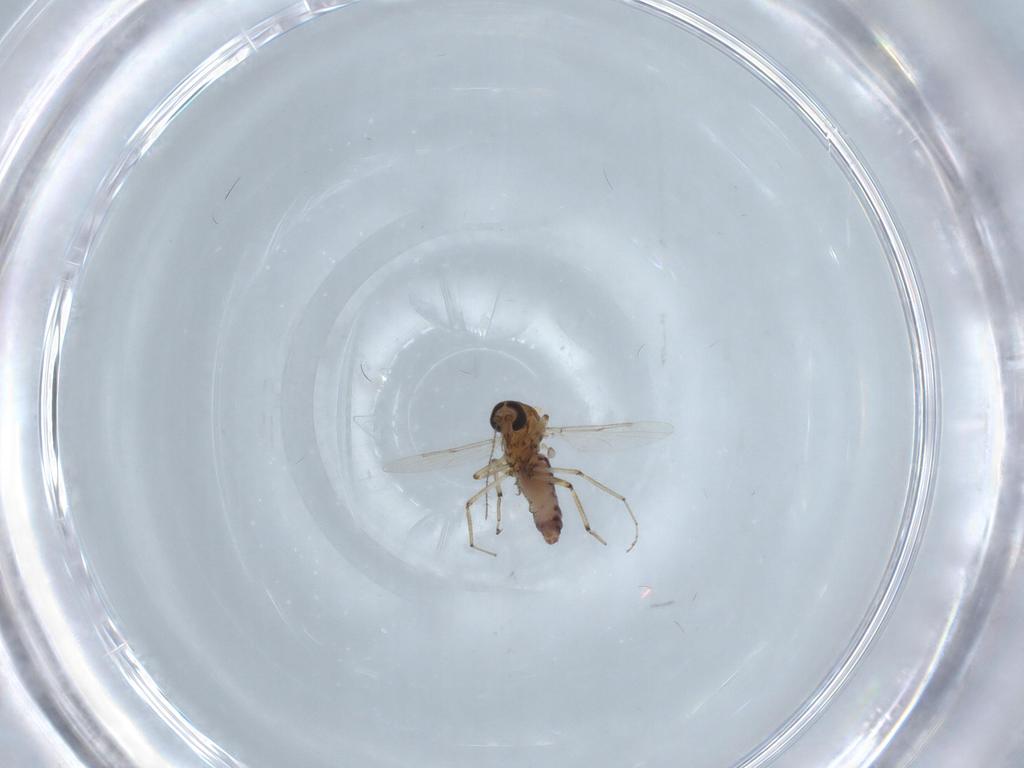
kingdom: Animalia
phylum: Arthropoda
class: Insecta
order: Diptera
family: Ceratopogonidae
